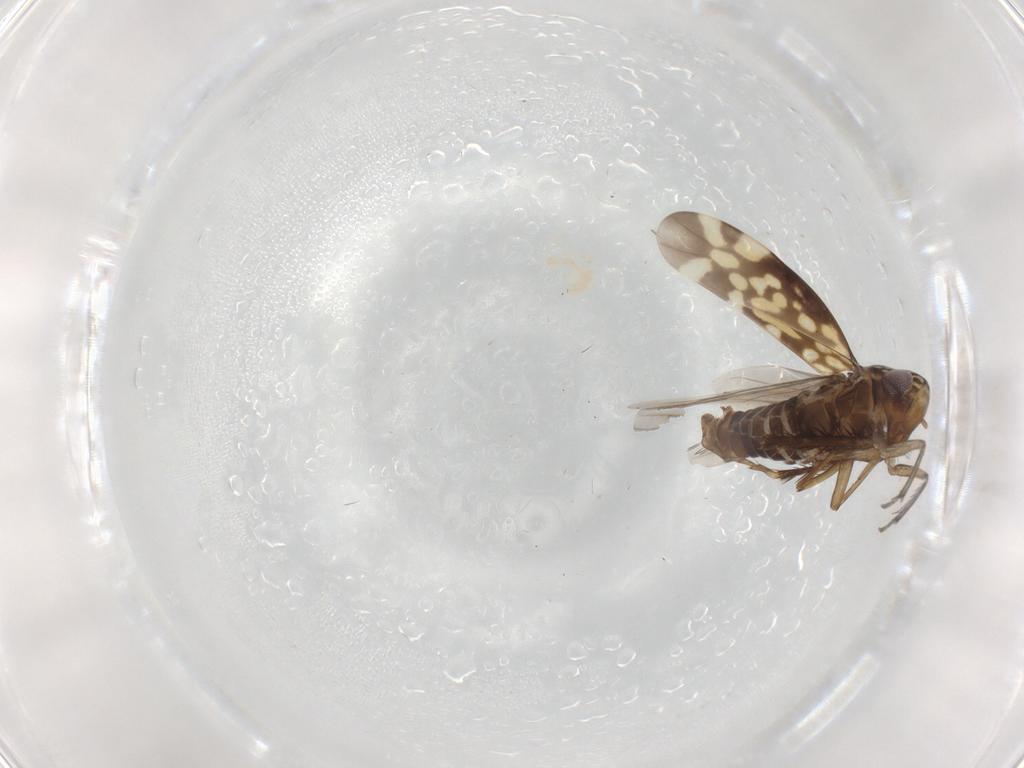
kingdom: Animalia
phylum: Arthropoda
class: Insecta
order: Hemiptera
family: Cicadellidae
